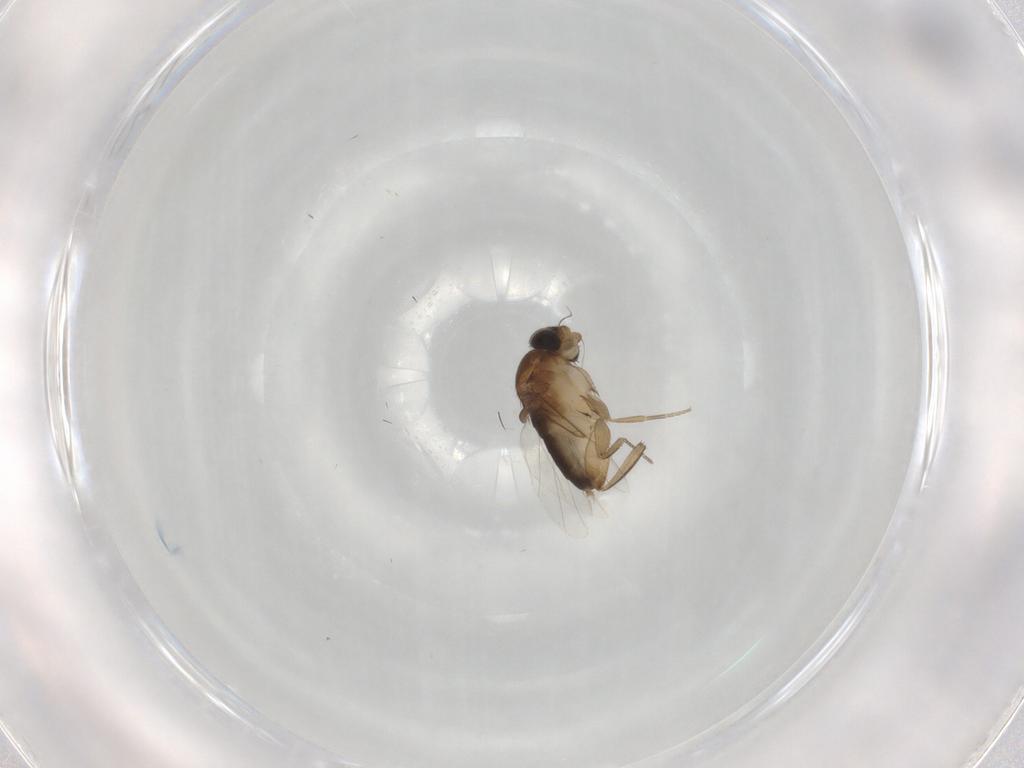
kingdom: Animalia
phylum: Arthropoda
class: Insecta
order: Diptera
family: Phoridae
